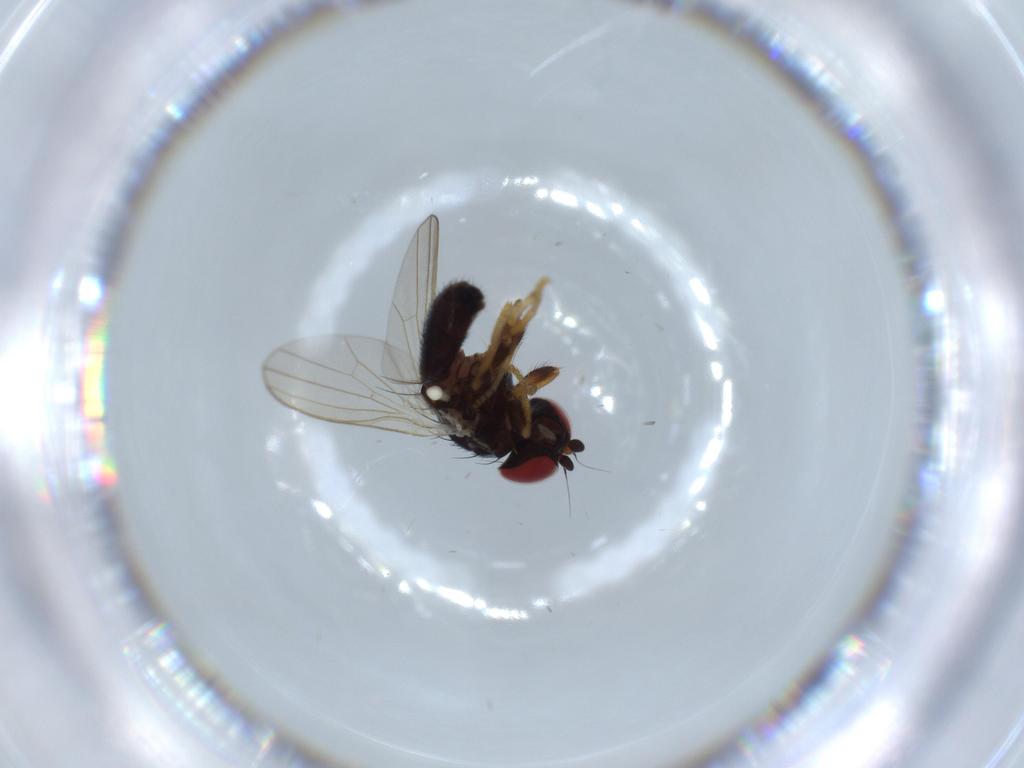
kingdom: Animalia
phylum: Arthropoda
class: Insecta
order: Diptera
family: Chamaemyiidae
